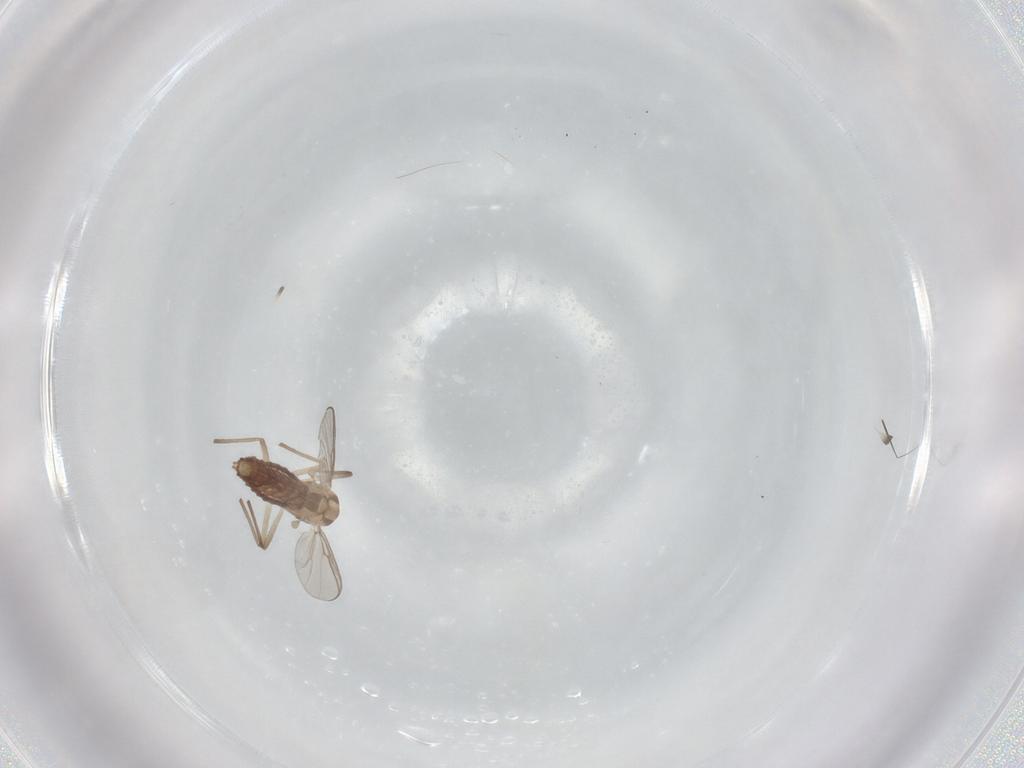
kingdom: Animalia
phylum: Arthropoda
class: Insecta
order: Diptera
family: Chironomidae
